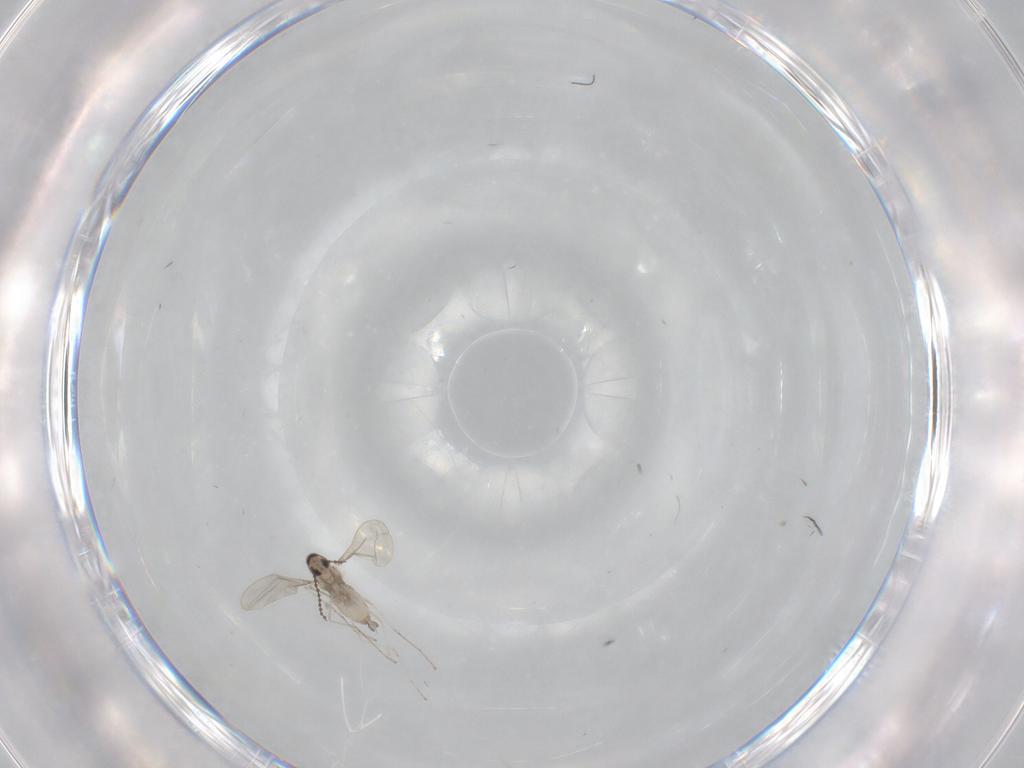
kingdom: Animalia
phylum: Arthropoda
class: Insecta
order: Diptera
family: Cecidomyiidae
